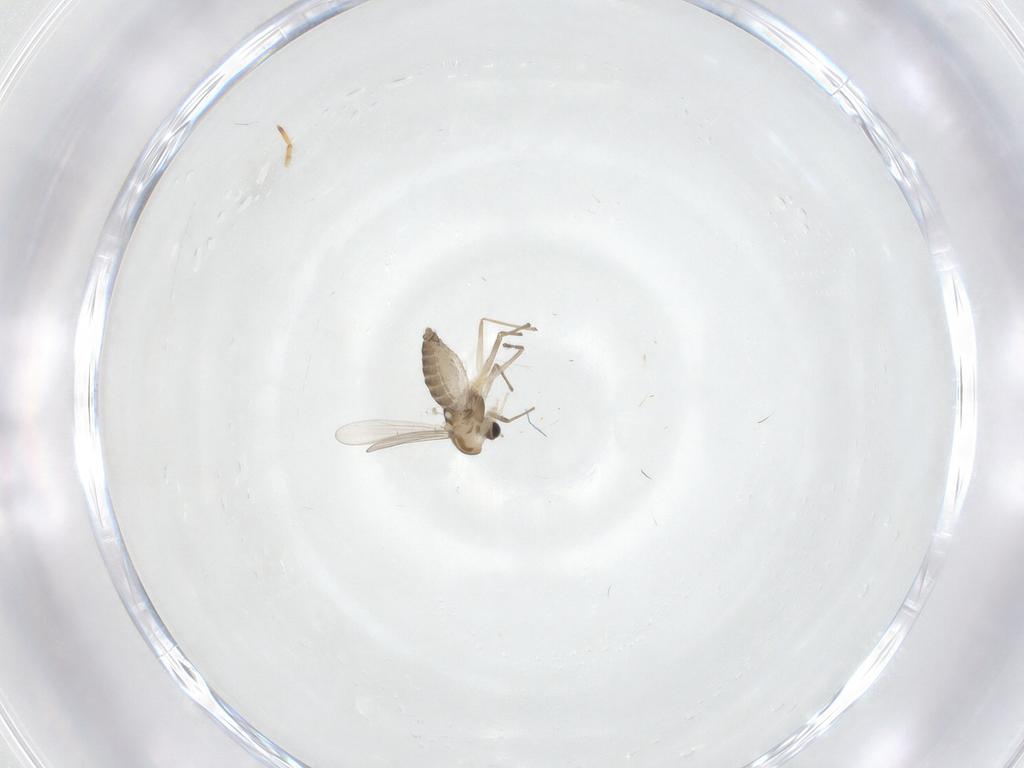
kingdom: Animalia
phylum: Arthropoda
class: Insecta
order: Diptera
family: Chironomidae
